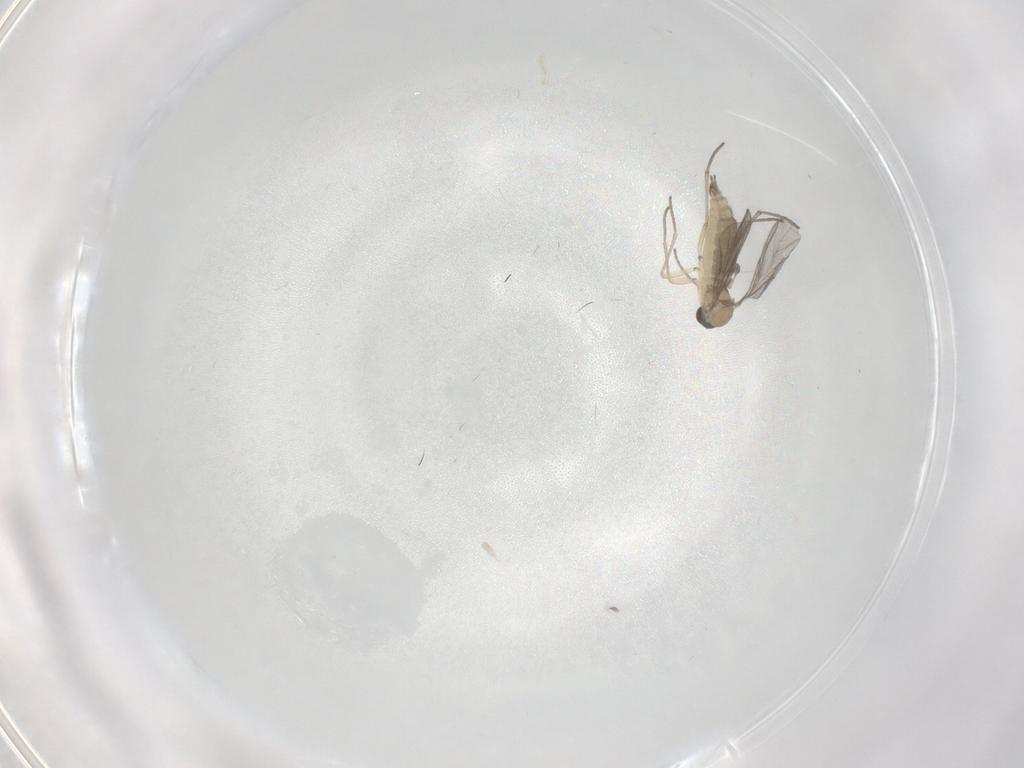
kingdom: Animalia
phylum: Arthropoda
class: Insecta
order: Diptera
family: Sciaridae
